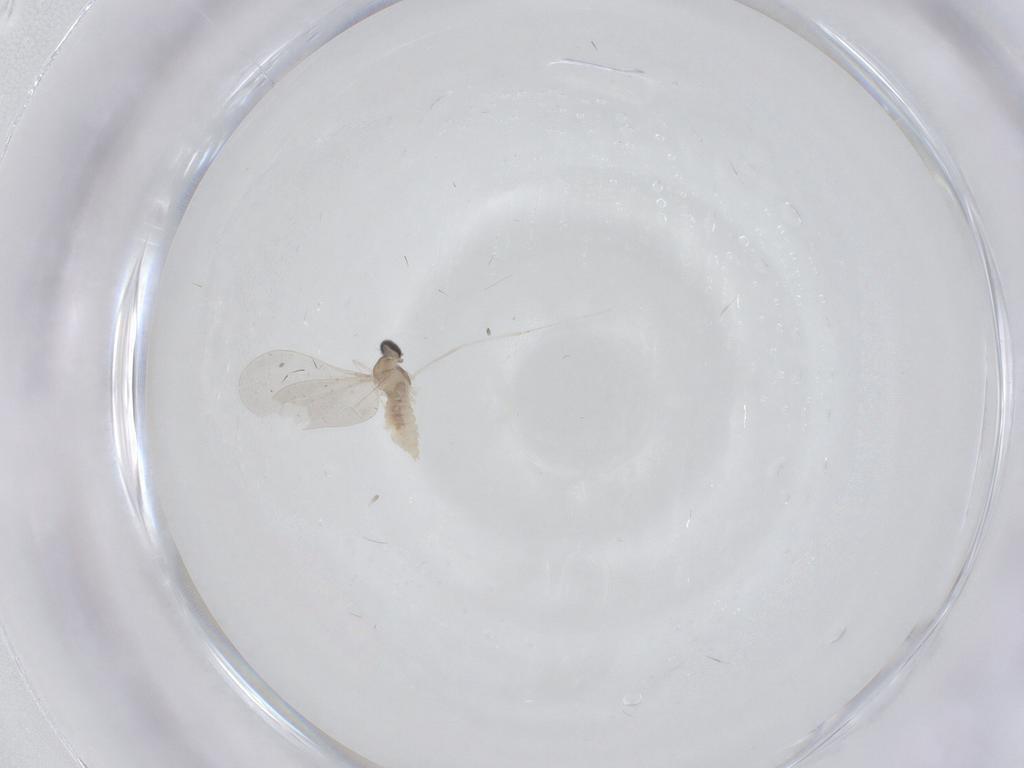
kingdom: Animalia
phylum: Arthropoda
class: Insecta
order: Diptera
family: Cecidomyiidae
